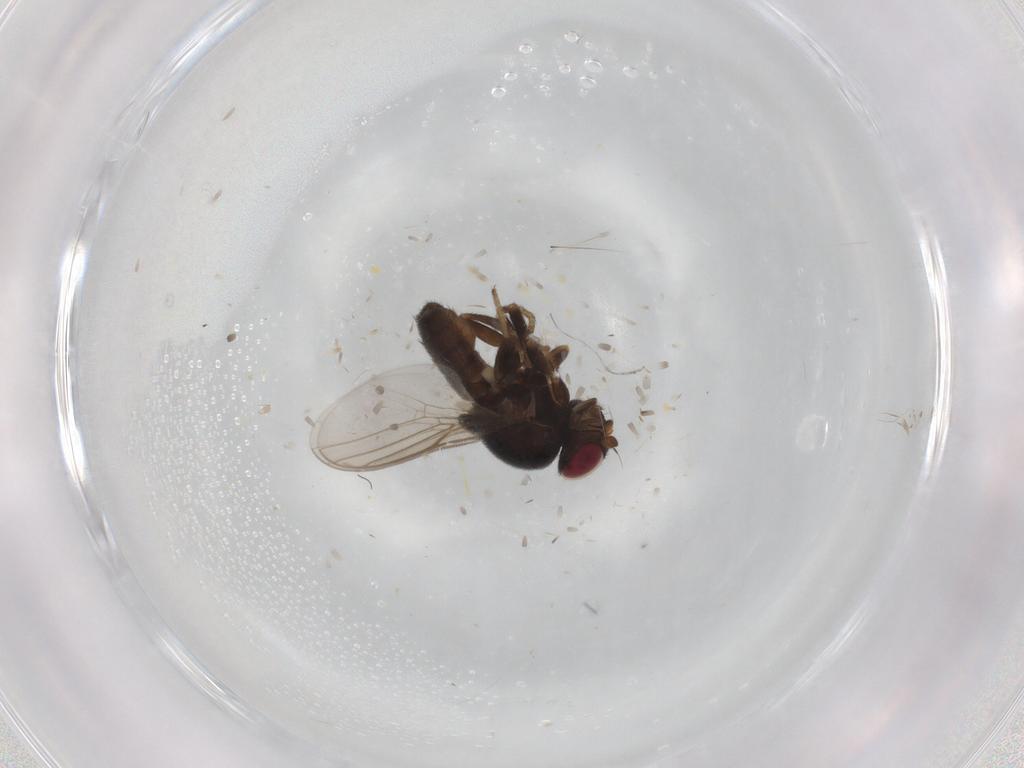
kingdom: Animalia
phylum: Arthropoda
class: Insecta
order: Diptera
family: Chloropidae
